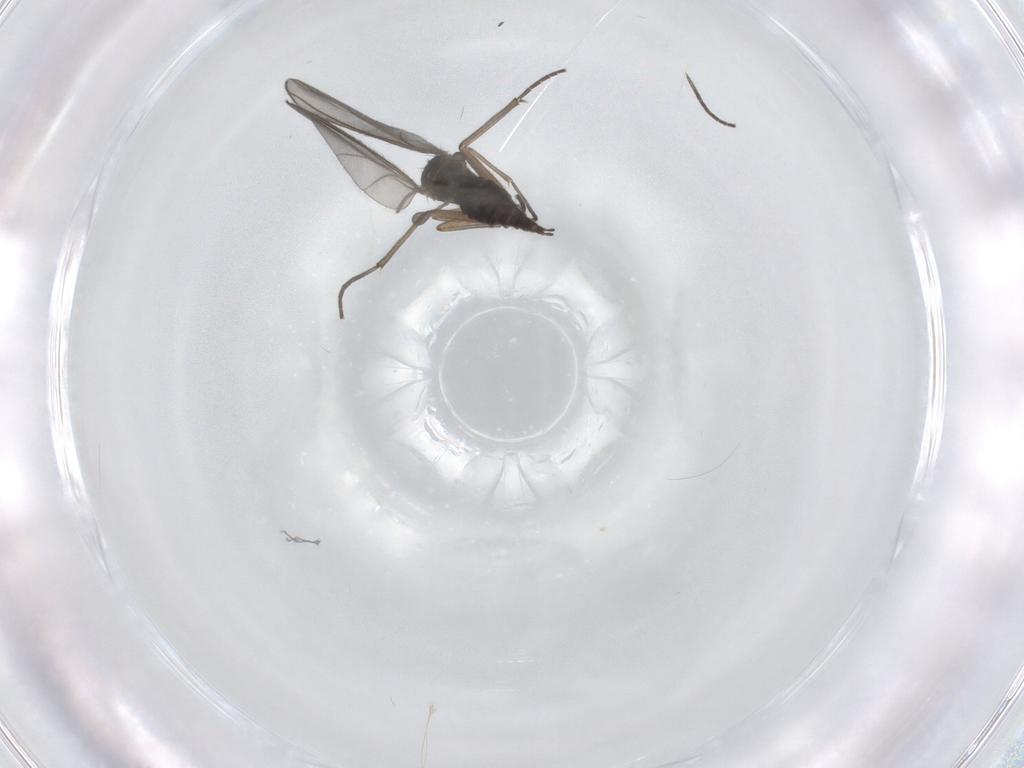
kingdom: Animalia
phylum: Arthropoda
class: Insecta
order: Diptera
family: Sciaridae
